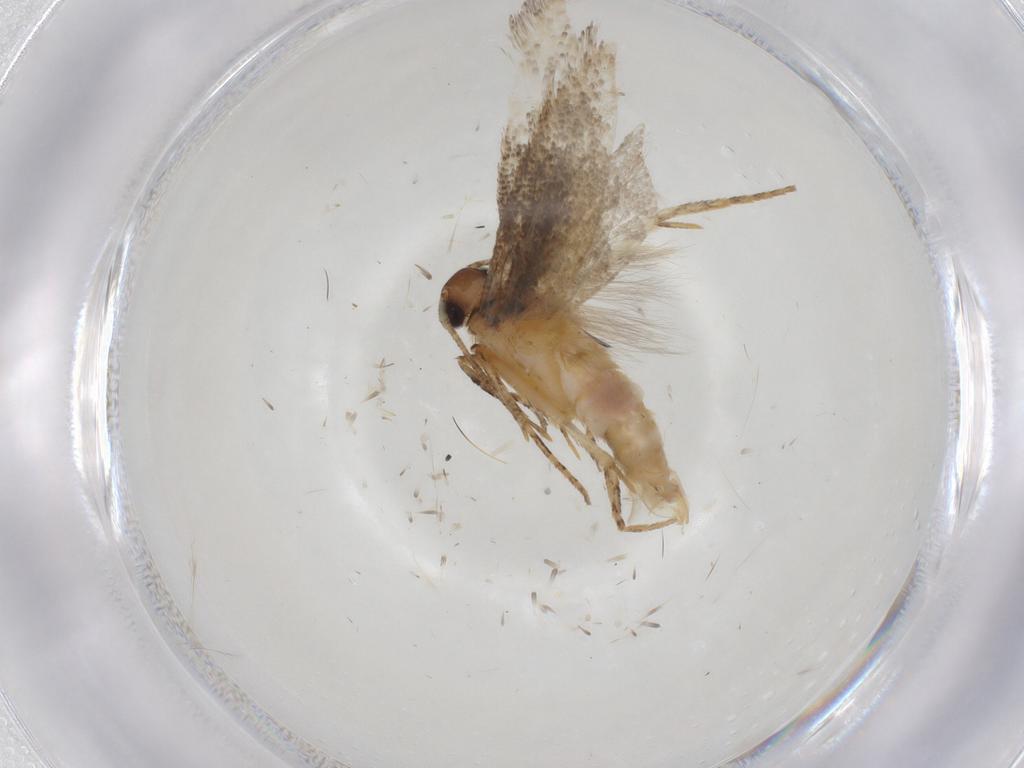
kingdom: Animalia
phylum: Arthropoda
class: Insecta
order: Lepidoptera
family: Gelechiidae
